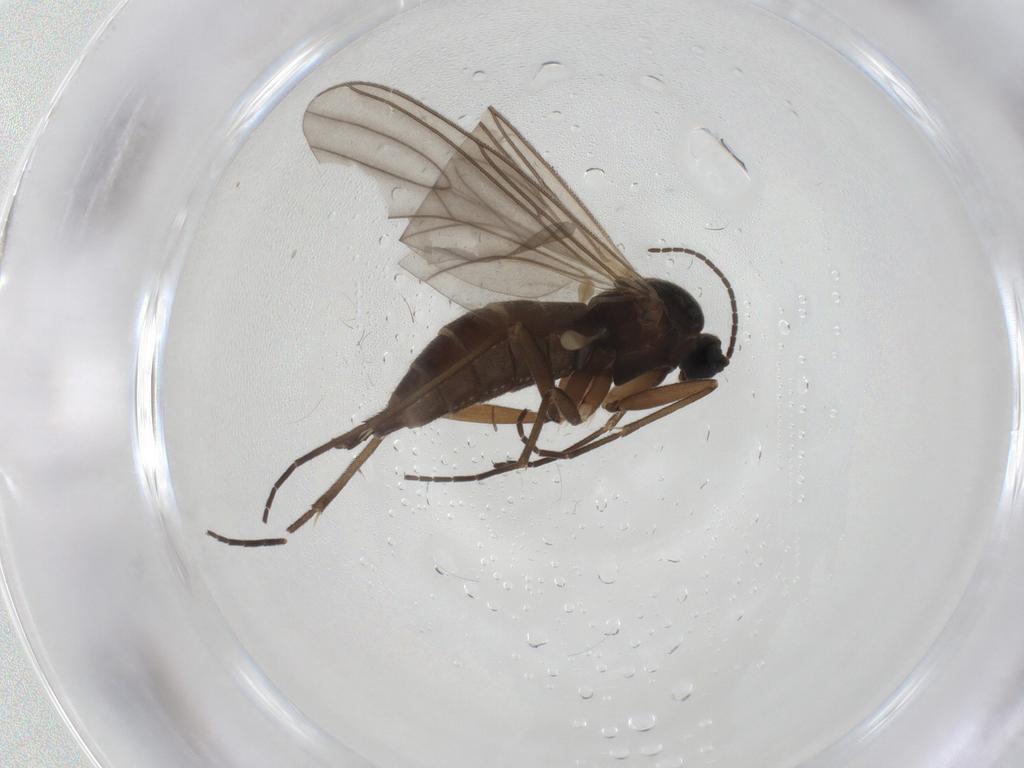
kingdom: Animalia
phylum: Arthropoda
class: Insecta
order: Diptera
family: Sciaridae
